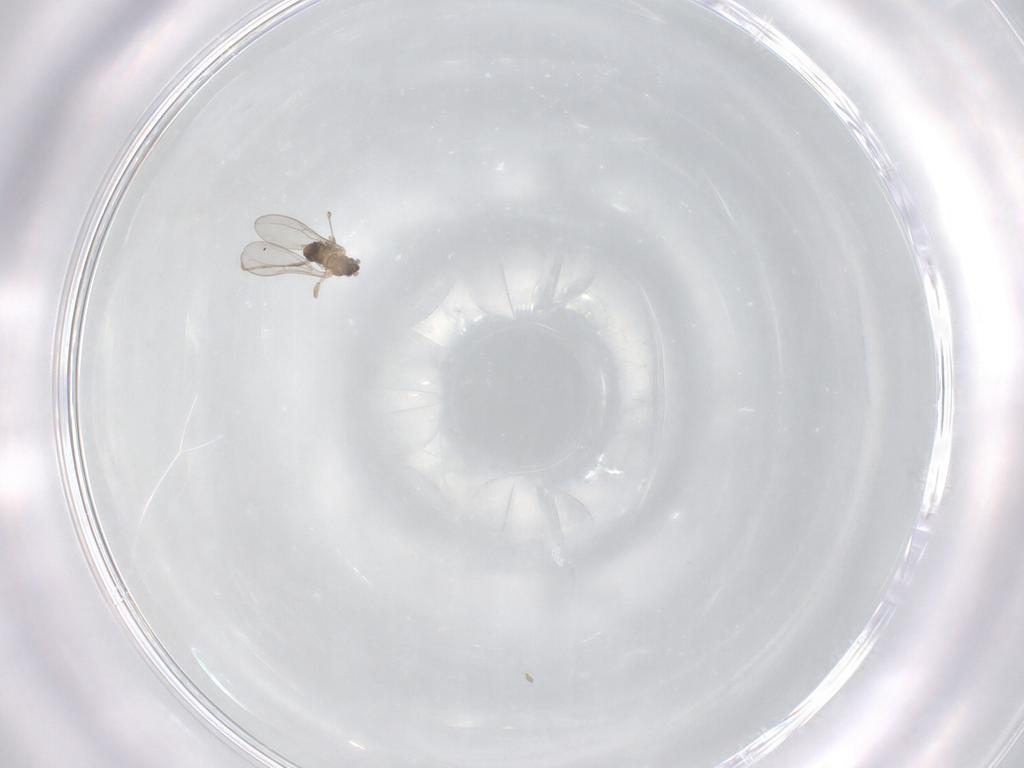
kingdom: Animalia
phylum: Arthropoda
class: Insecta
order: Diptera
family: Cecidomyiidae
